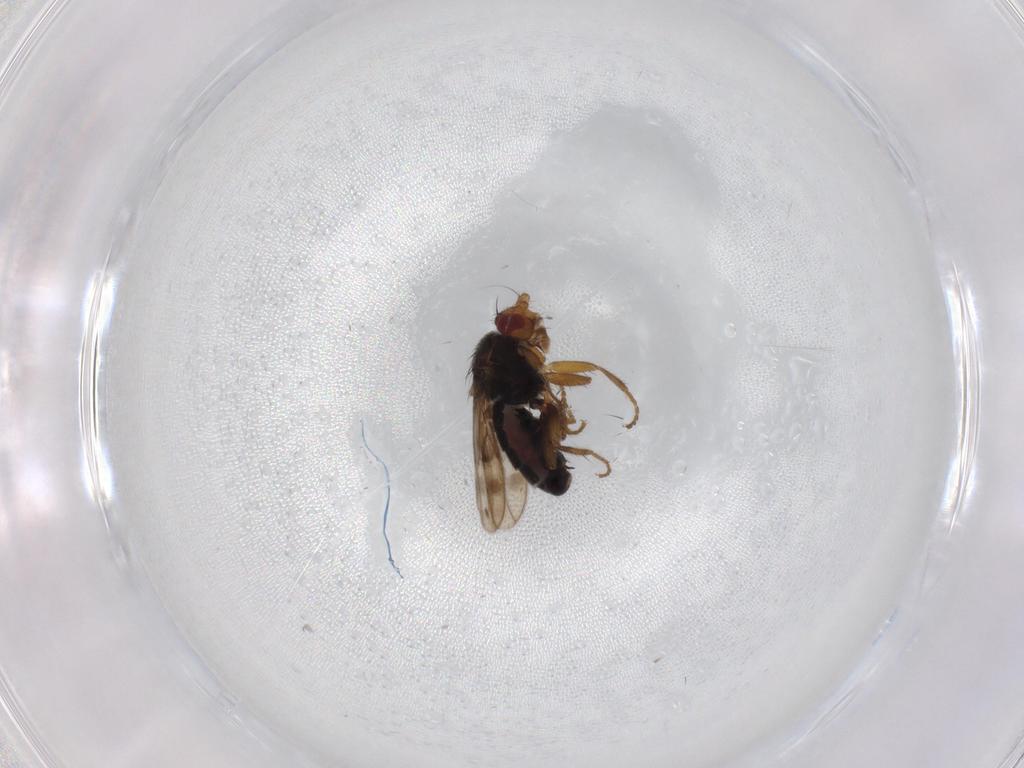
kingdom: Animalia
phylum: Arthropoda
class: Insecta
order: Diptera
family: Sphaeroceridae
